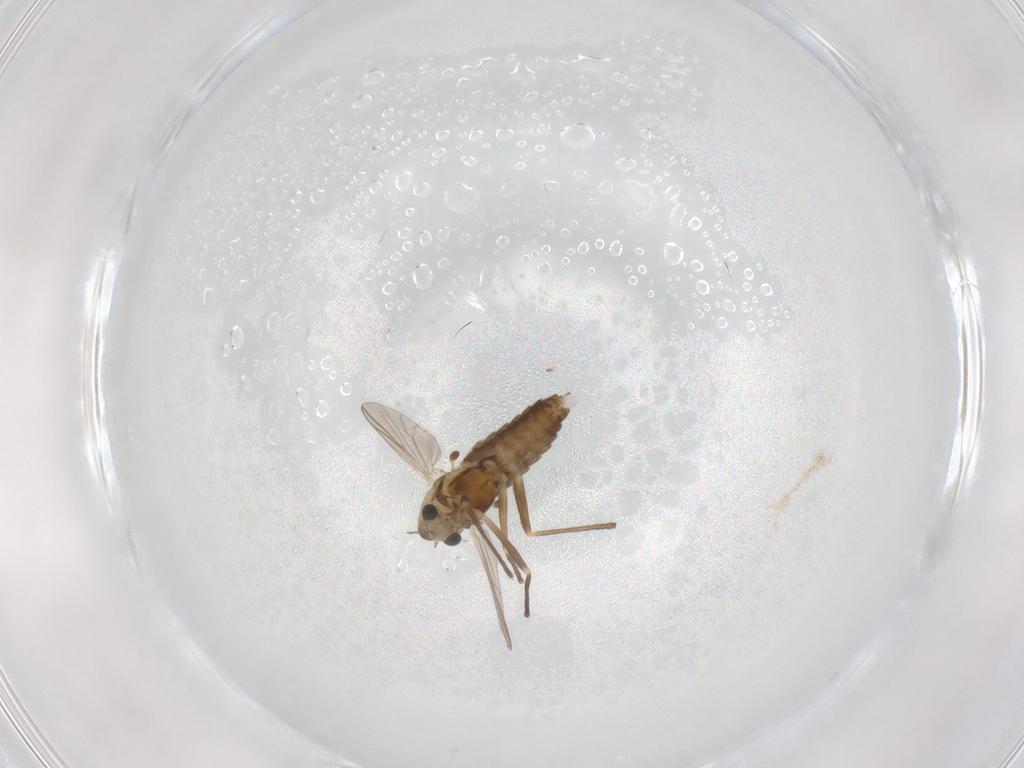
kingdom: Animalia
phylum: Arthropoda
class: Insecta
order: Diptera
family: Chironomidae
